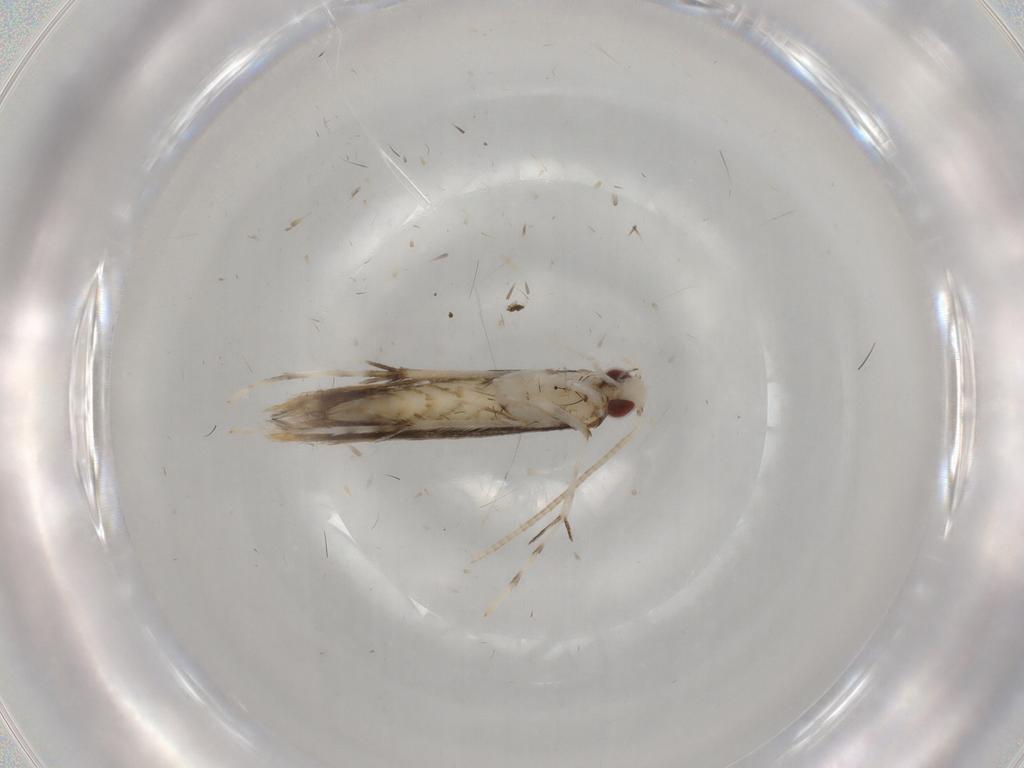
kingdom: Animalia
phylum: Arthropoda
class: Insecta
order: Lepidoptera
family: Gracillariidae
